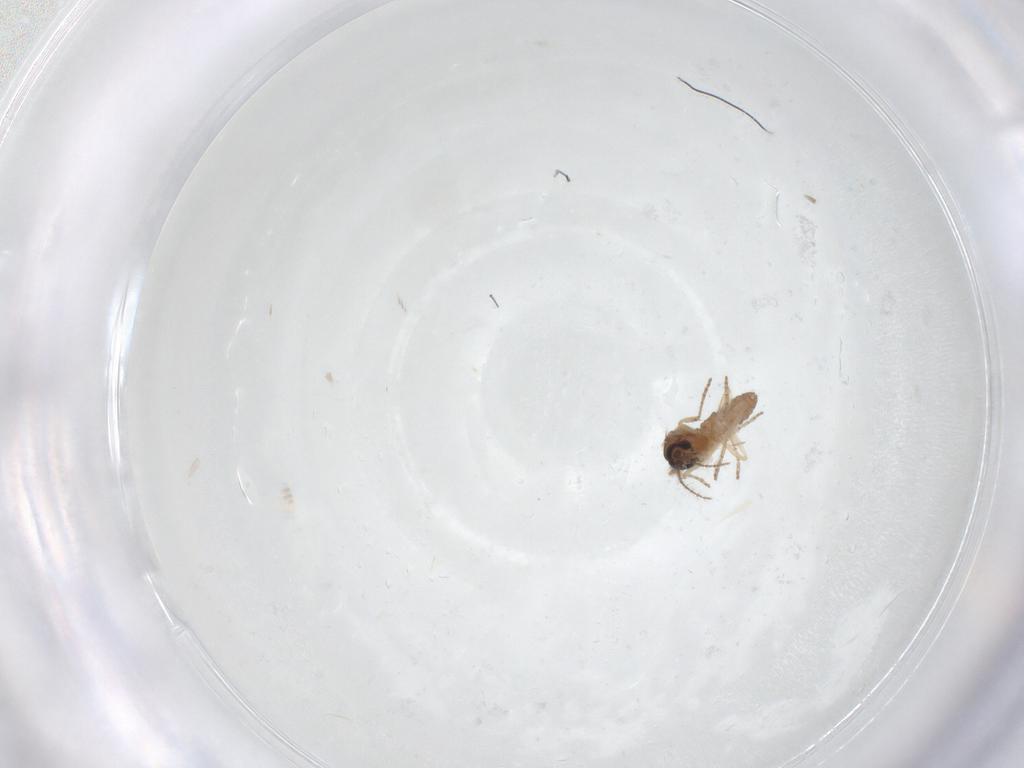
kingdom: Animalia
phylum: Arthropoda
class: Insecta
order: Diptera
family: Ceratopogonidae
